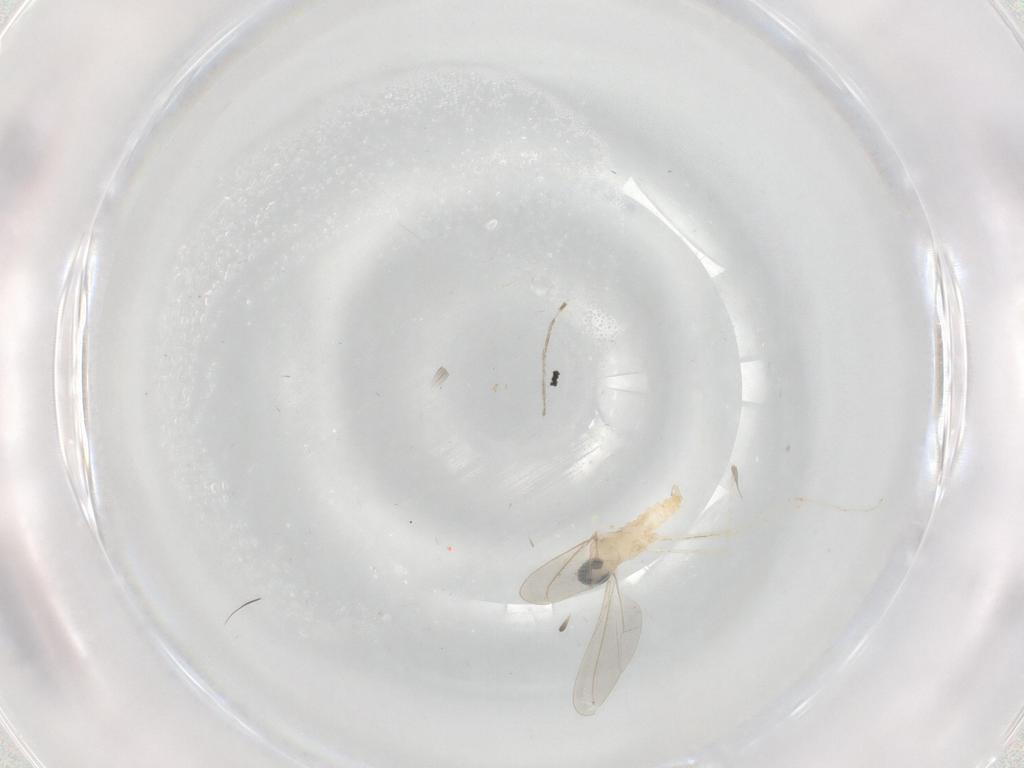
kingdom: Animalia
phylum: Arthropoda
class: Insecta
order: Diptera
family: Cecidomyiidae
